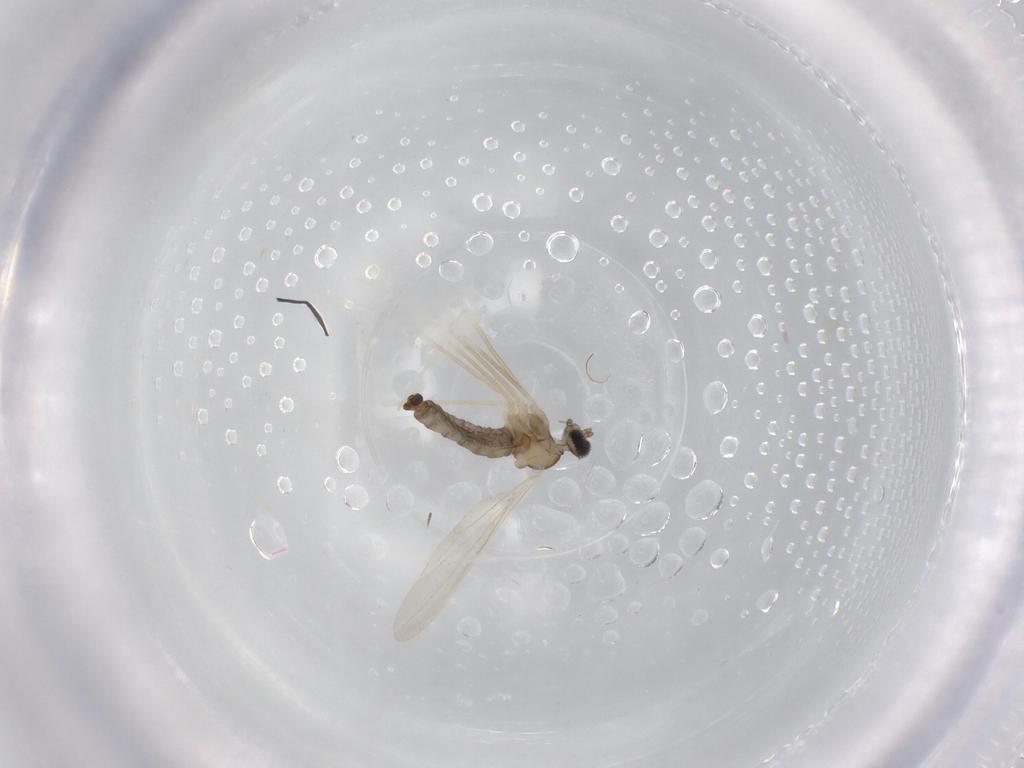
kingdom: Animalia
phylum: Arthropoda
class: Insecta
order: Diptera
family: Cecidomyiidae
